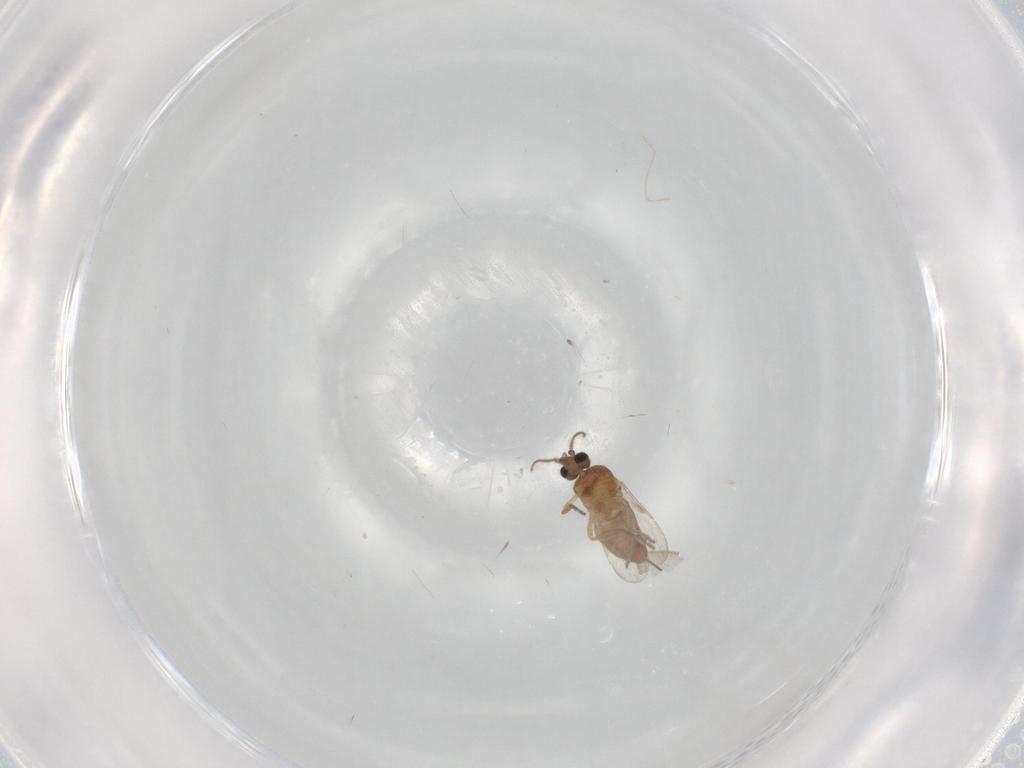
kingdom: Animalia
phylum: Arthropoda
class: Insecta
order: Diptera
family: Ceratopogonidae
